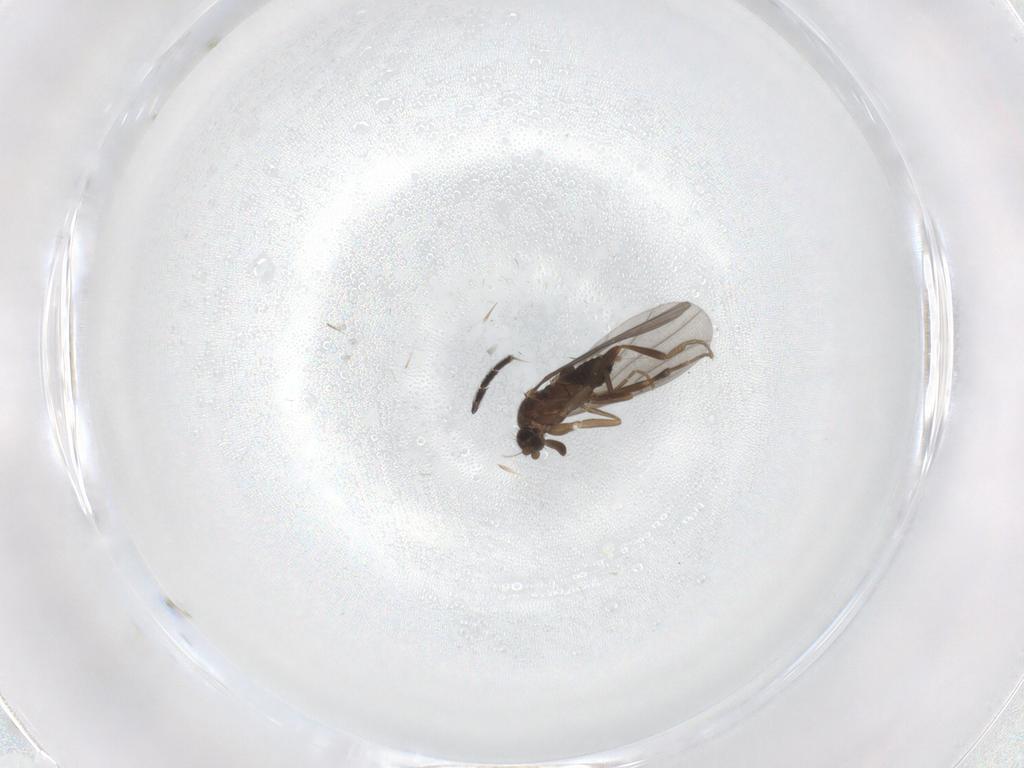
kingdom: Animalia
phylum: Arthropoda
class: Insecta
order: Diptera
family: Sciaridae
